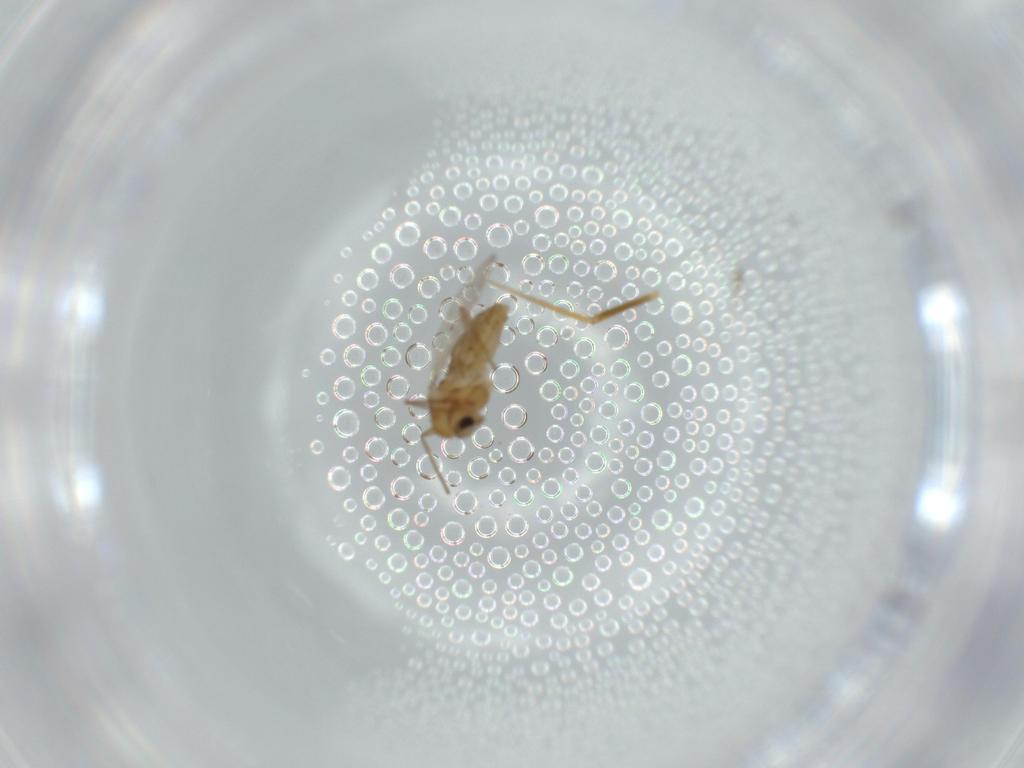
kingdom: Animalia
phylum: Arthropoda
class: Insecta
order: Diptera
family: Chironomidae
